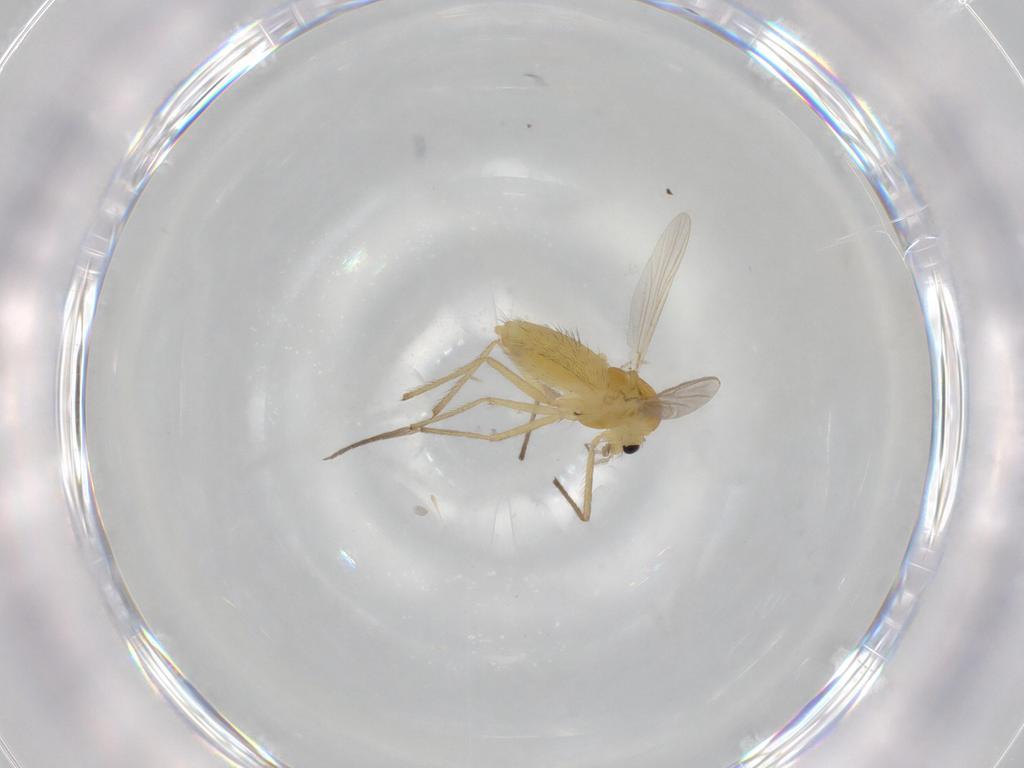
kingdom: Animalia
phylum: Arthropoda
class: Insecta
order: Diptera
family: Chironomidae
